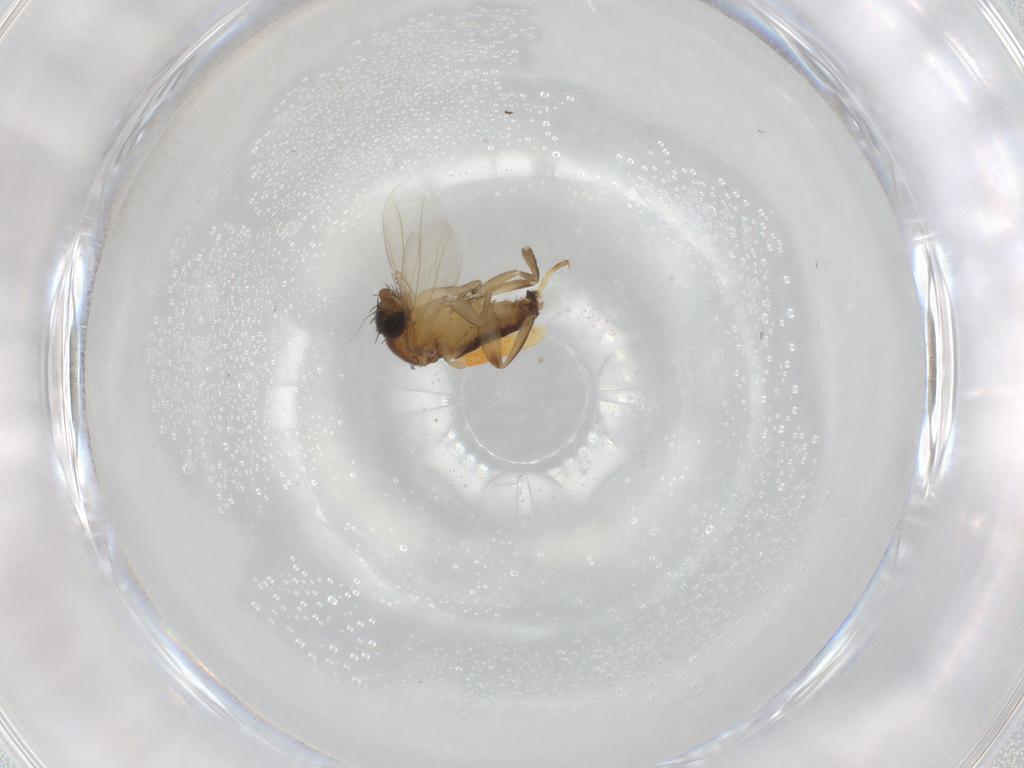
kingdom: Animalia
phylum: Arthropoda
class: Insecta
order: Diptera
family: Phoridae
